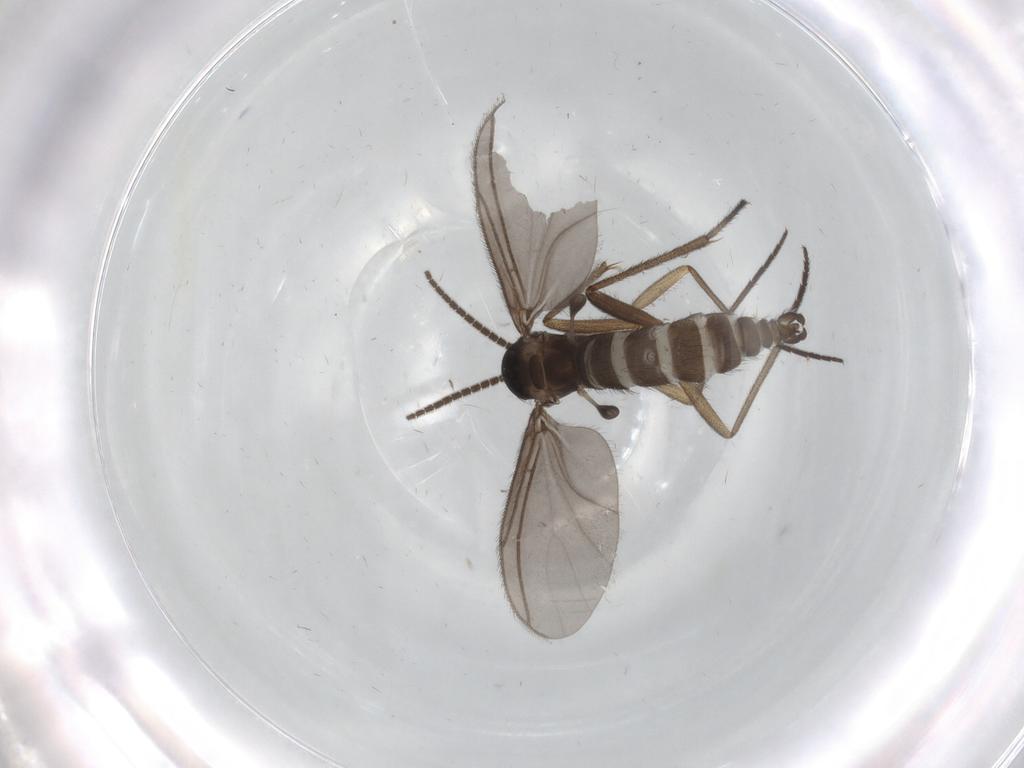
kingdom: Animalia
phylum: Arthropoda
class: Insecta
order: Diptera
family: Sciaridae
